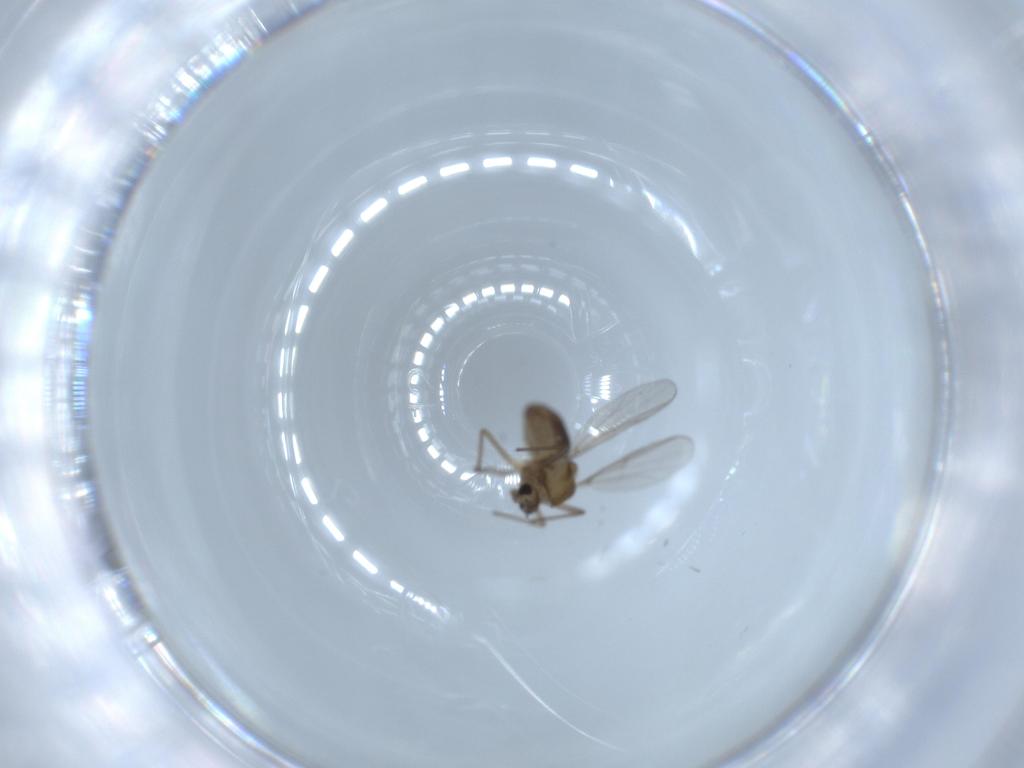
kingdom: Animalia
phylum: Arthropoda
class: Insecta
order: Diptera
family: Chironomidae
